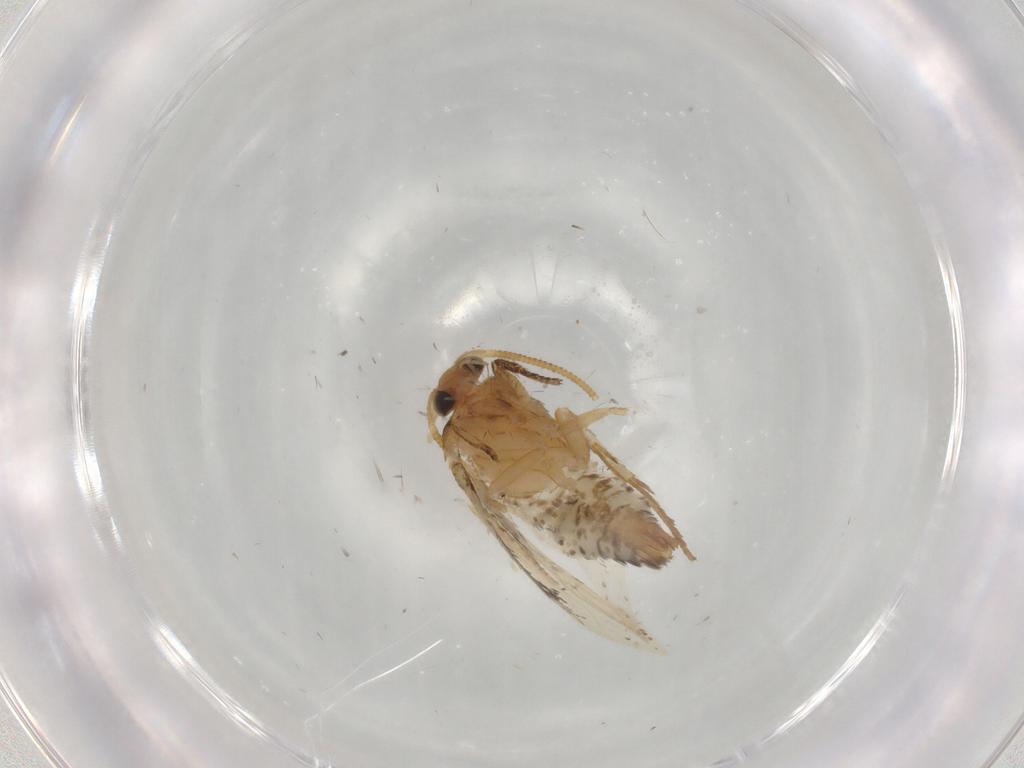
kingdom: Animalia
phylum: Arthropoda
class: Insecta
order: Lepidoptera
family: Nepticulidae
